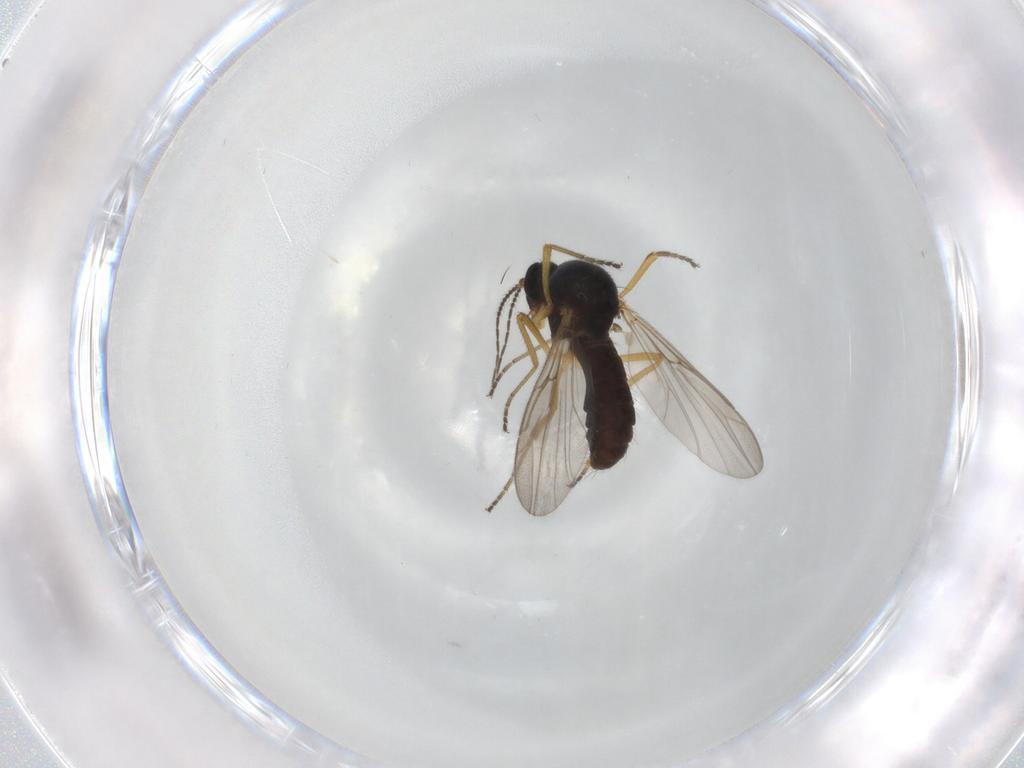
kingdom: Animalia
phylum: Arthropoda
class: Insecta
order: Diptera
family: Ceratopogonidae
